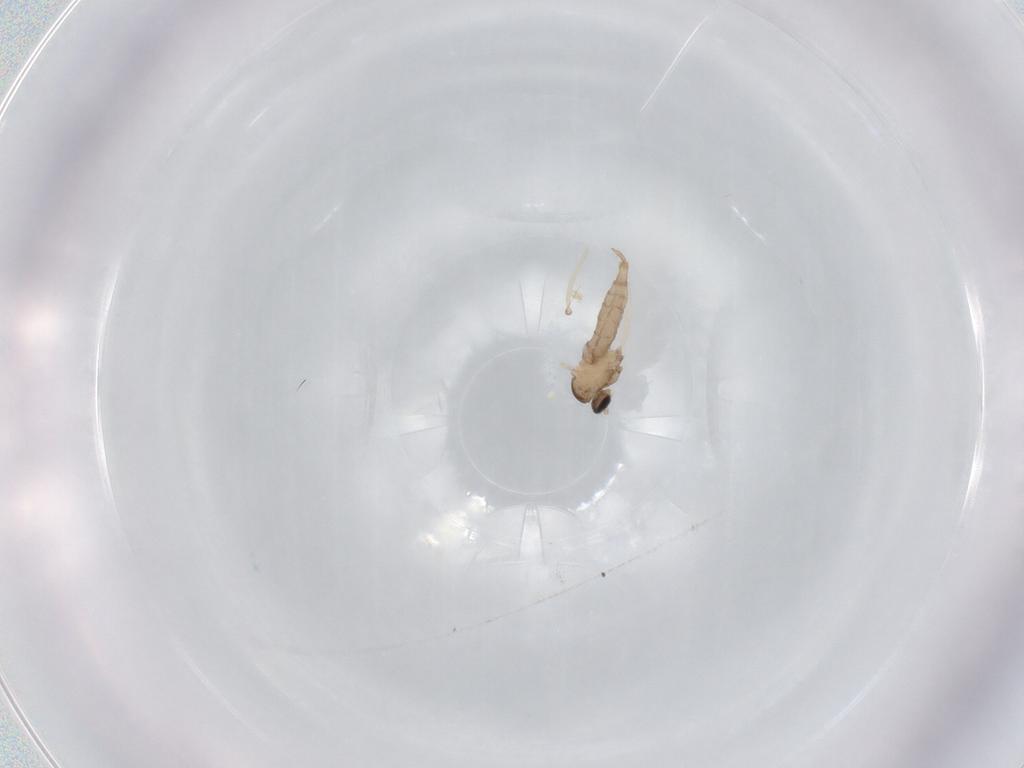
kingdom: Animalia
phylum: Arthropoda
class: Insecta
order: Diptera
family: Cecidomyiidae
